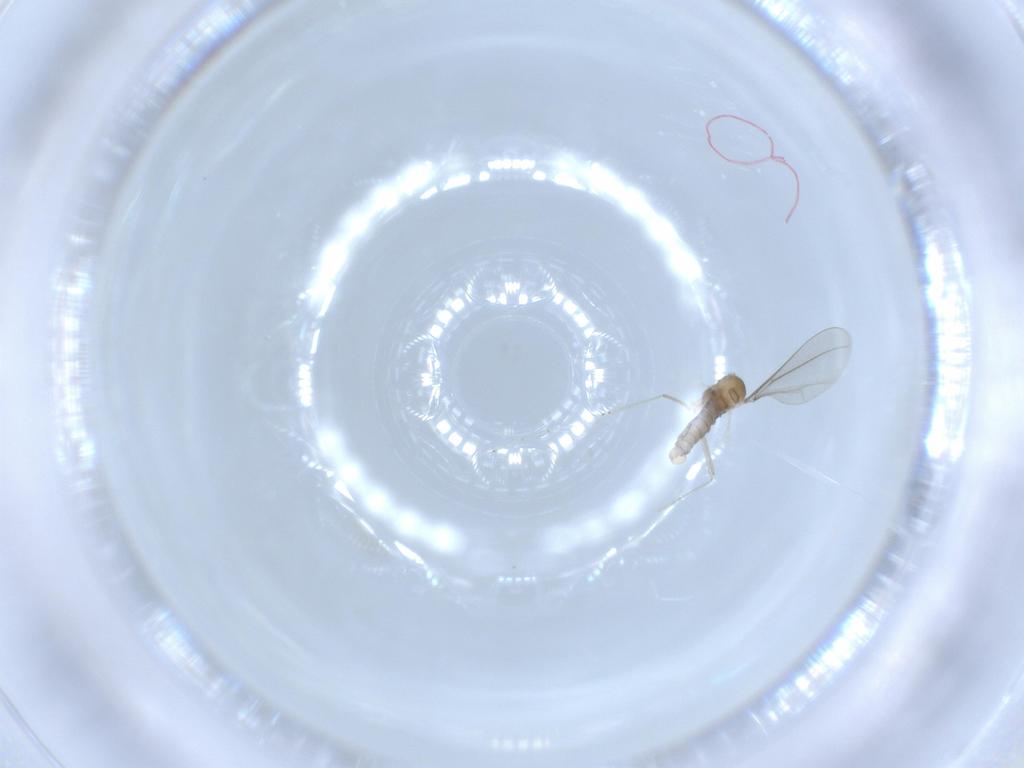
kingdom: Animalia
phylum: Arthropoda
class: Insecta
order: Diptera
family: Cecidomyiidae
